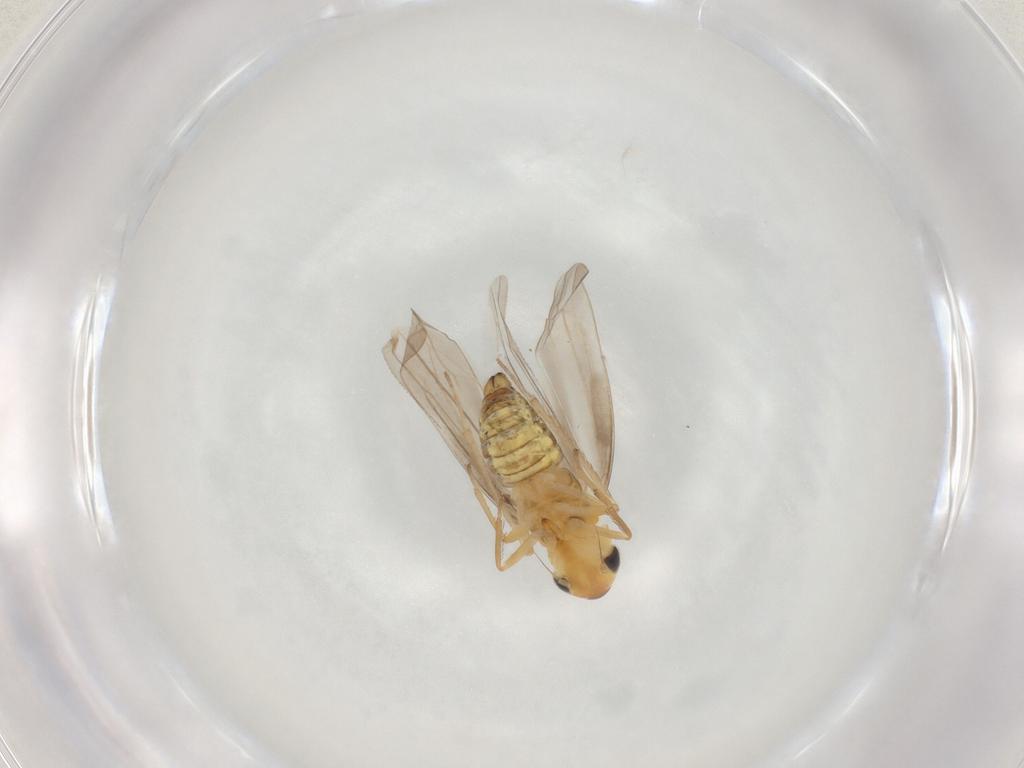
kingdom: Animalia
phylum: Arthropoda
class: Insecta
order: Hemiptera
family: Cicadellidae
